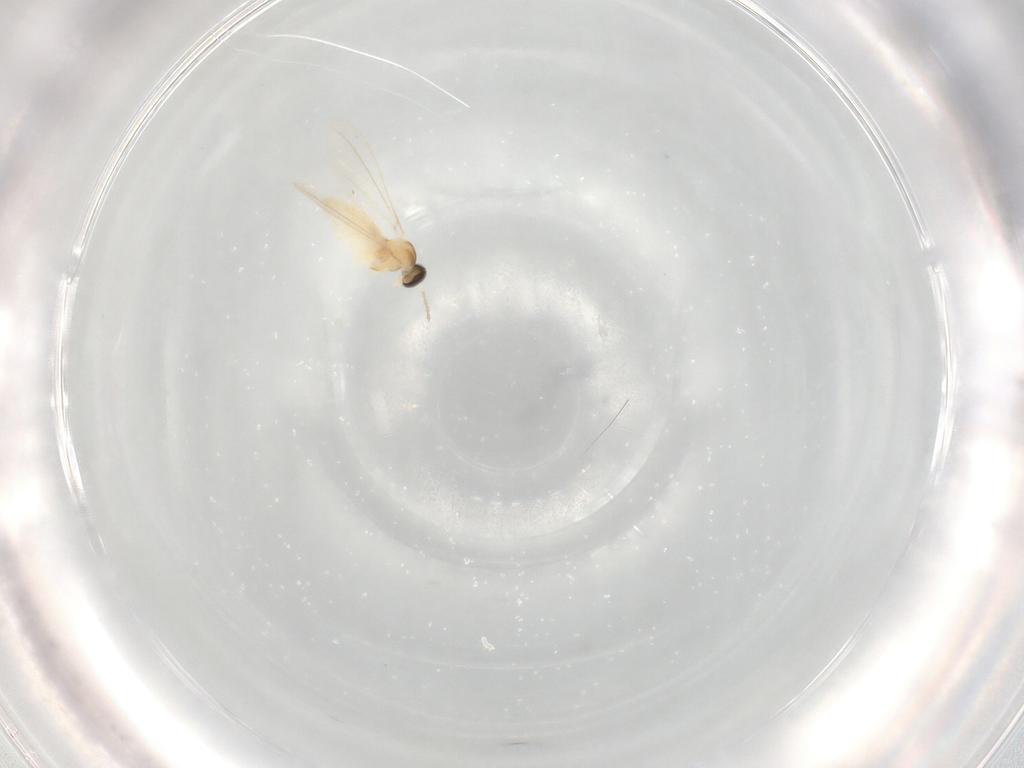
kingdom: Animalia
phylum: Arthropoda
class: Insecta
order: Diptera
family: Cecidomyiidae
